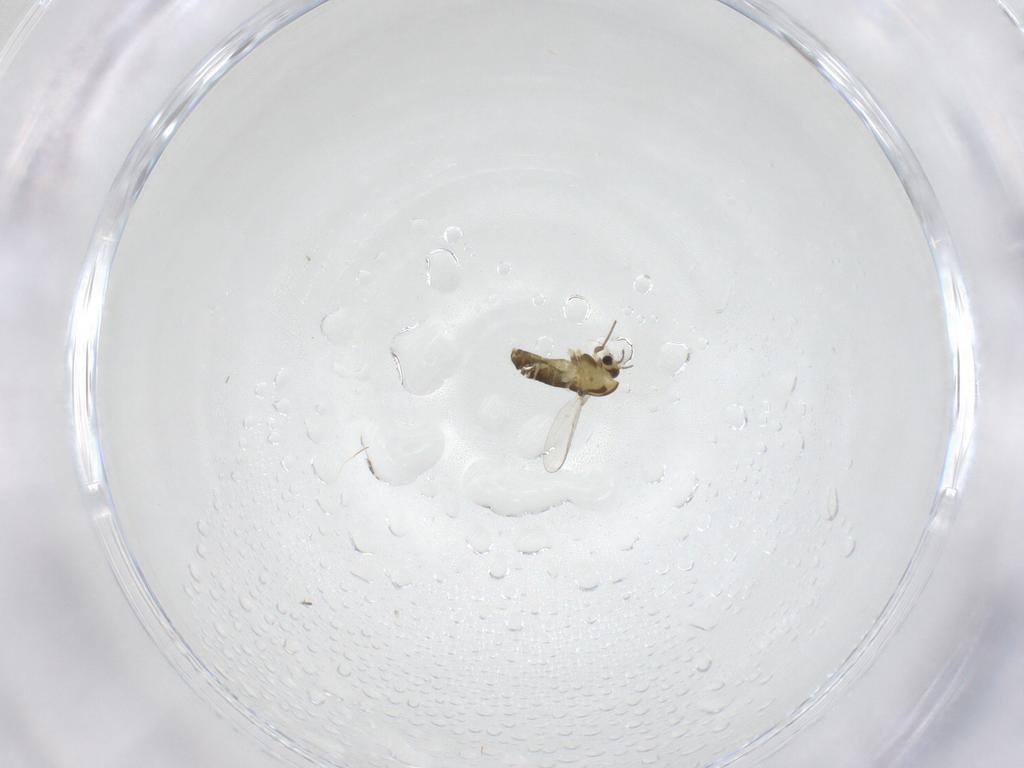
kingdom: Animalia
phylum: Arthropoda
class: Insecta
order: Diptera
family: Chironomidae
